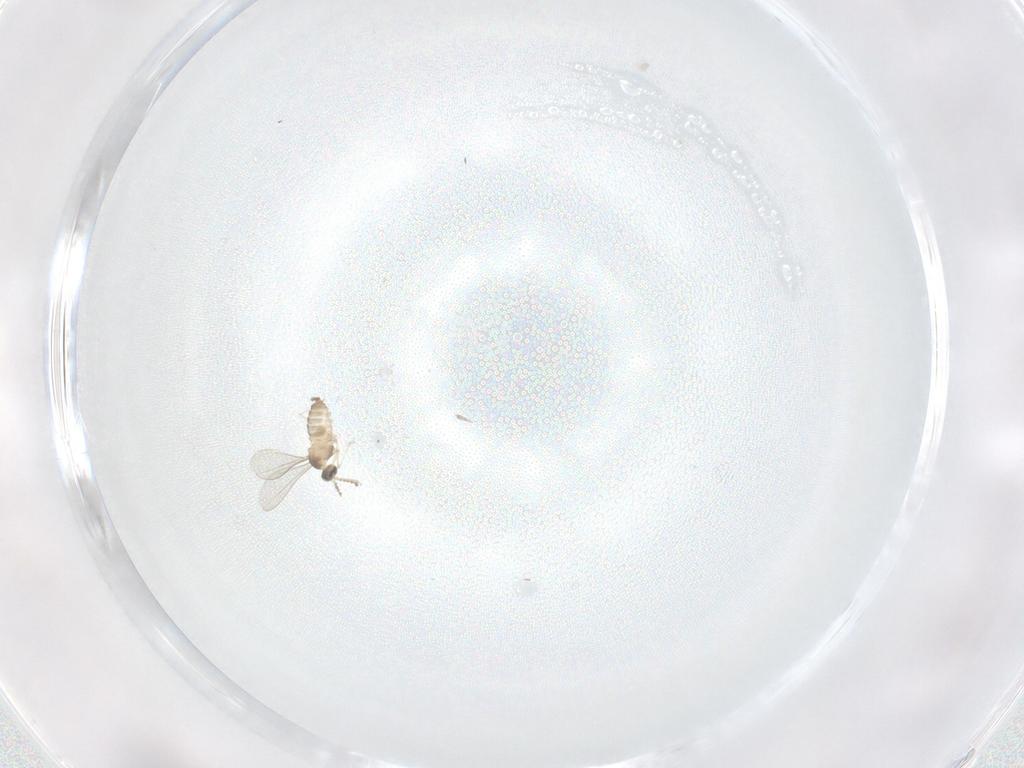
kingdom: Animalia
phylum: Arthropoda
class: Insecta
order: Diptera
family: Cecidomyiidae
